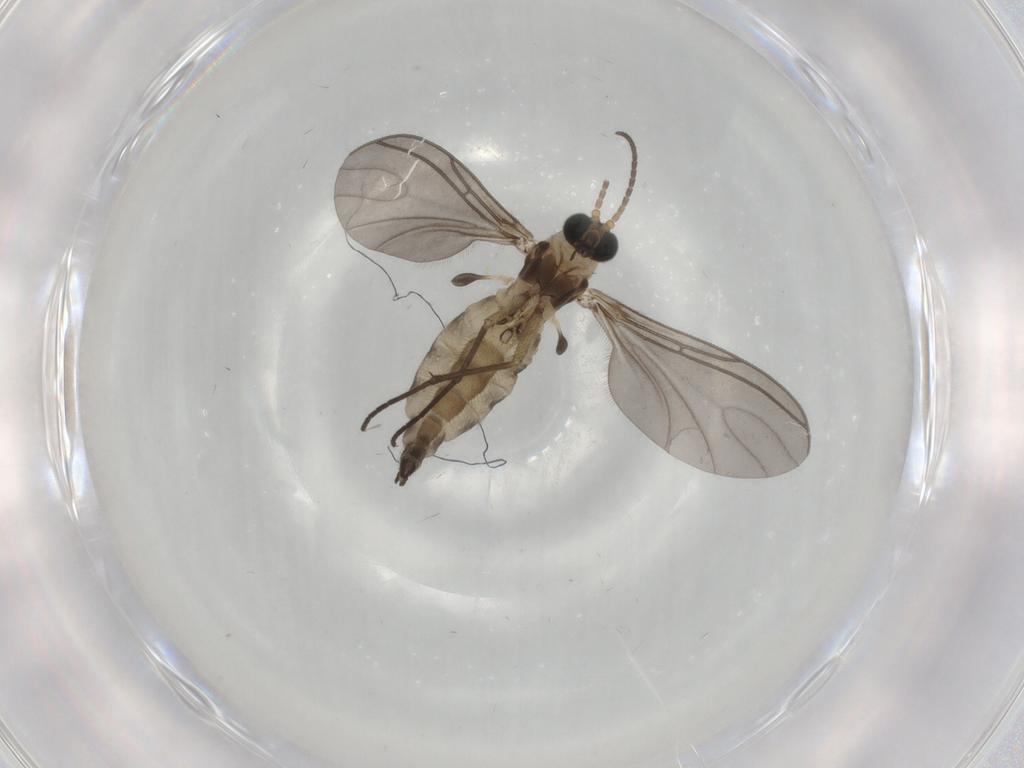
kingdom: Animalia
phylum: Arthropoda
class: Insecta
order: Diptera
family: Sciaridae
